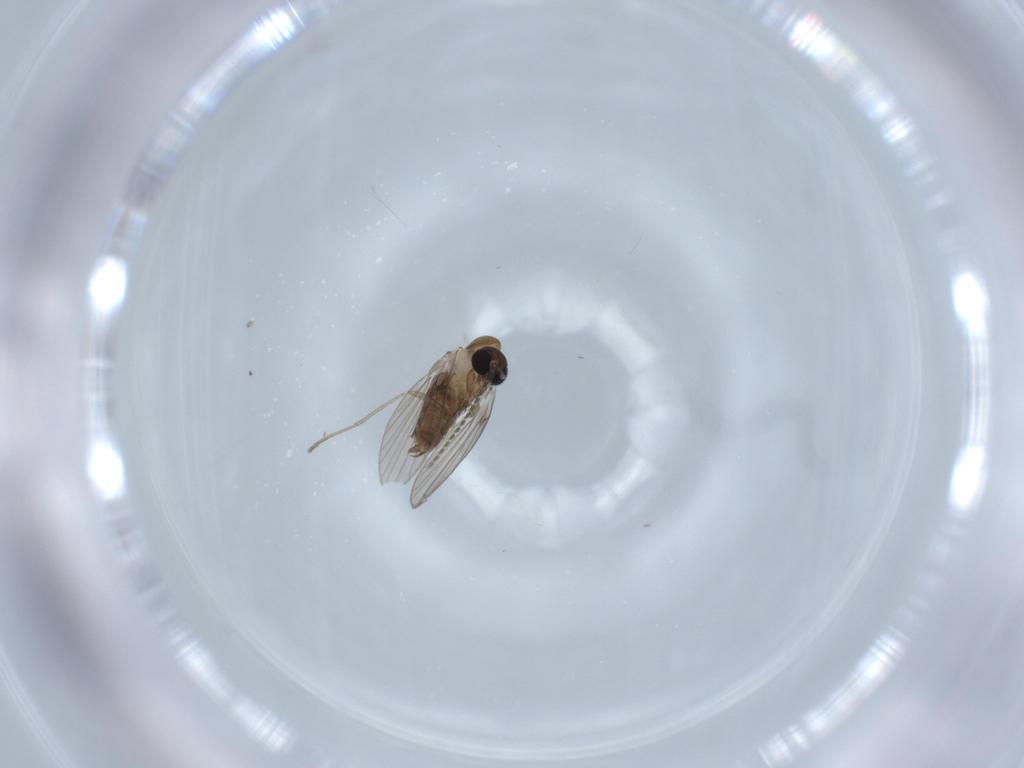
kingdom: Animalia
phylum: Arthropoda
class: Insecta
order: Diptera
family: Psychodidae
